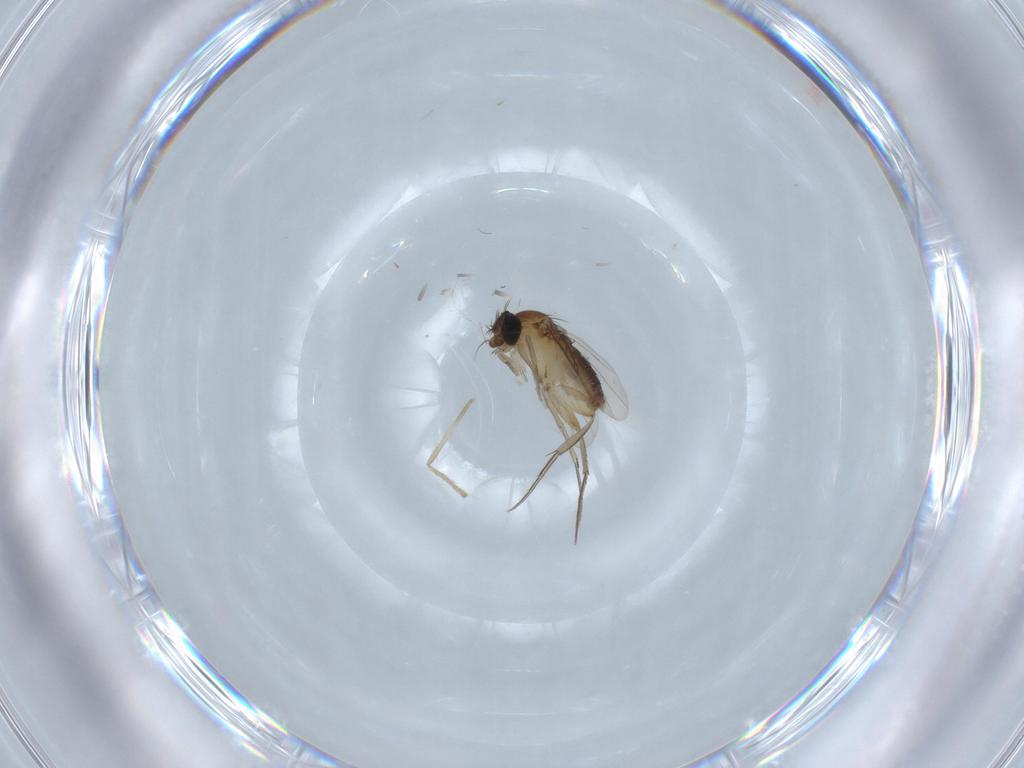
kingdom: Animalia
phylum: Arthropoda
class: Insecta
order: Diptera
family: Phoridae
